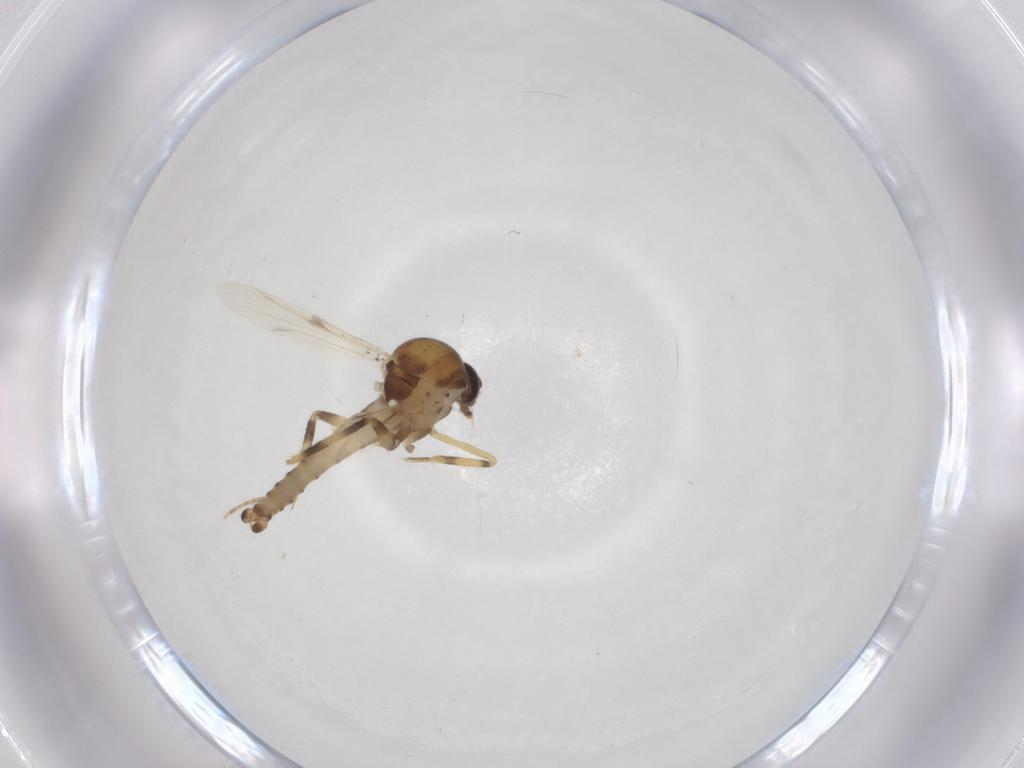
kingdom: Animalia
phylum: Arthropoda
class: Insecta
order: Diptera
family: Ceratopogonidae
